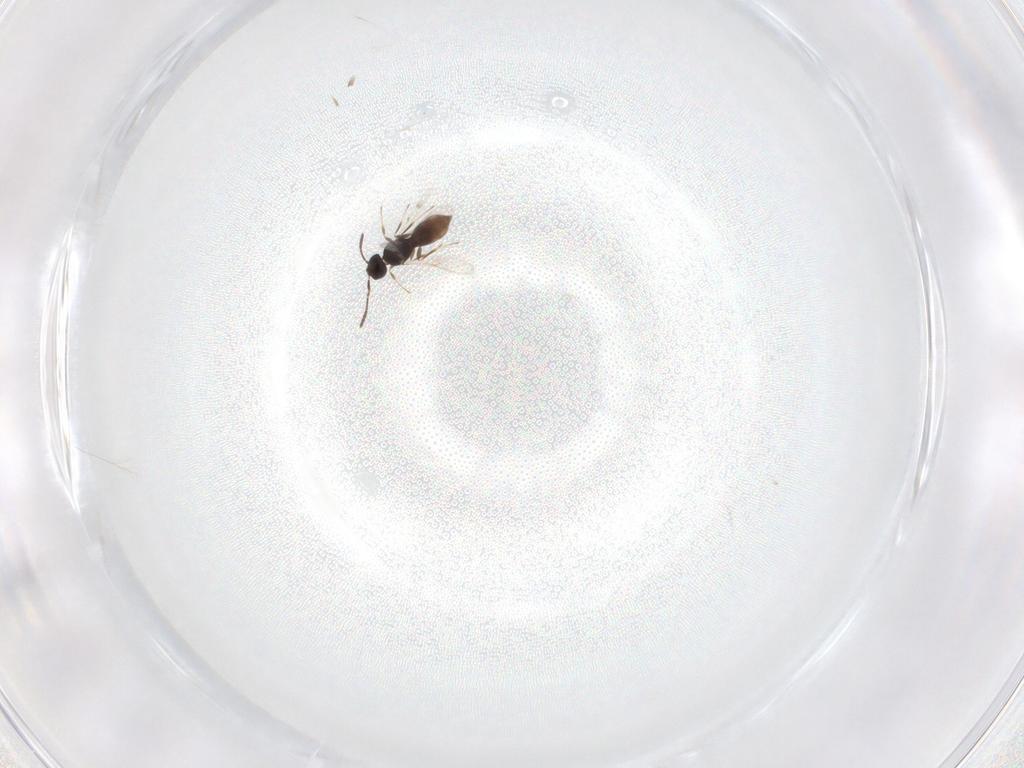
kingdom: Animalia
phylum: Arthropoda
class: Insecta
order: Hymenoptera
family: Scelionidae
